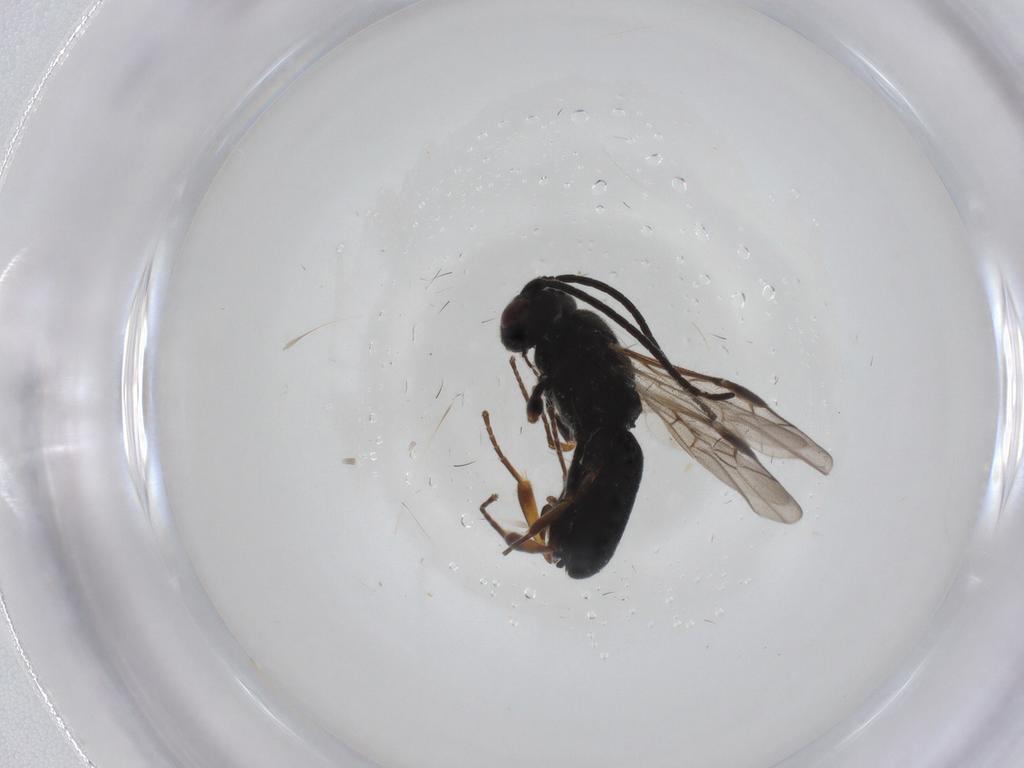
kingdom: Animalia
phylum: Arthropoda
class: Insecta
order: Hymenoptera
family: Braconidae
